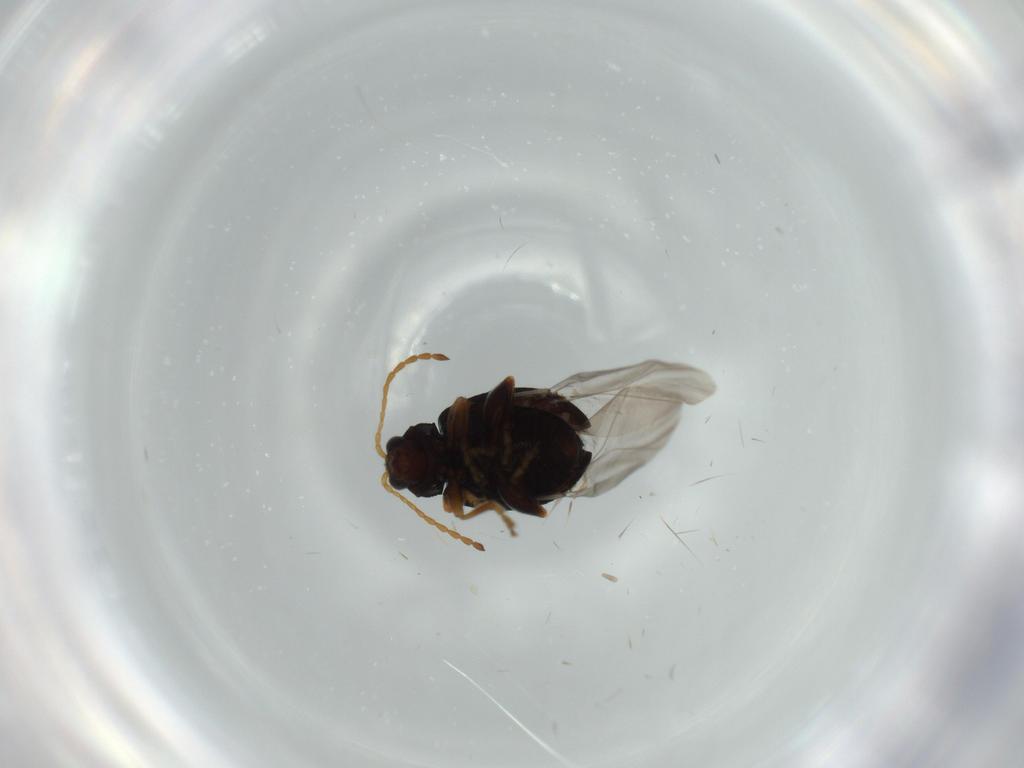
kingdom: Animalia
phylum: Arthropoda
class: Insecta
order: Coleoptera
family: Chrysomelidae
